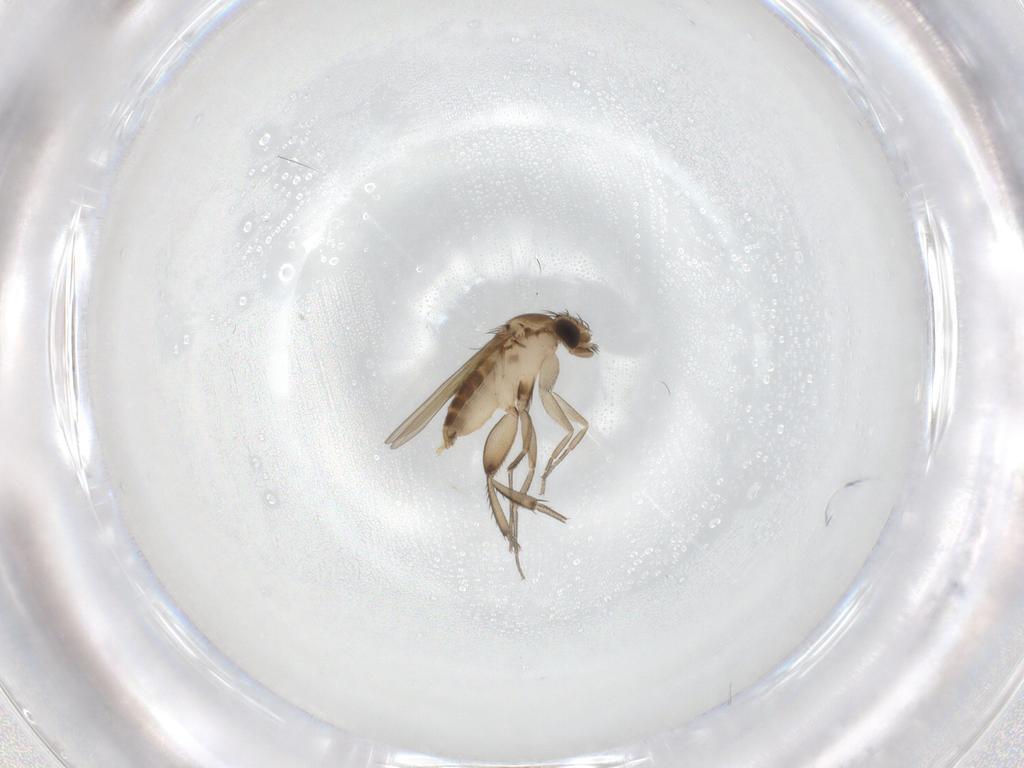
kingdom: Animalia
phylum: Arthropoda
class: Insecta
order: Diptera
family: Phoridae
